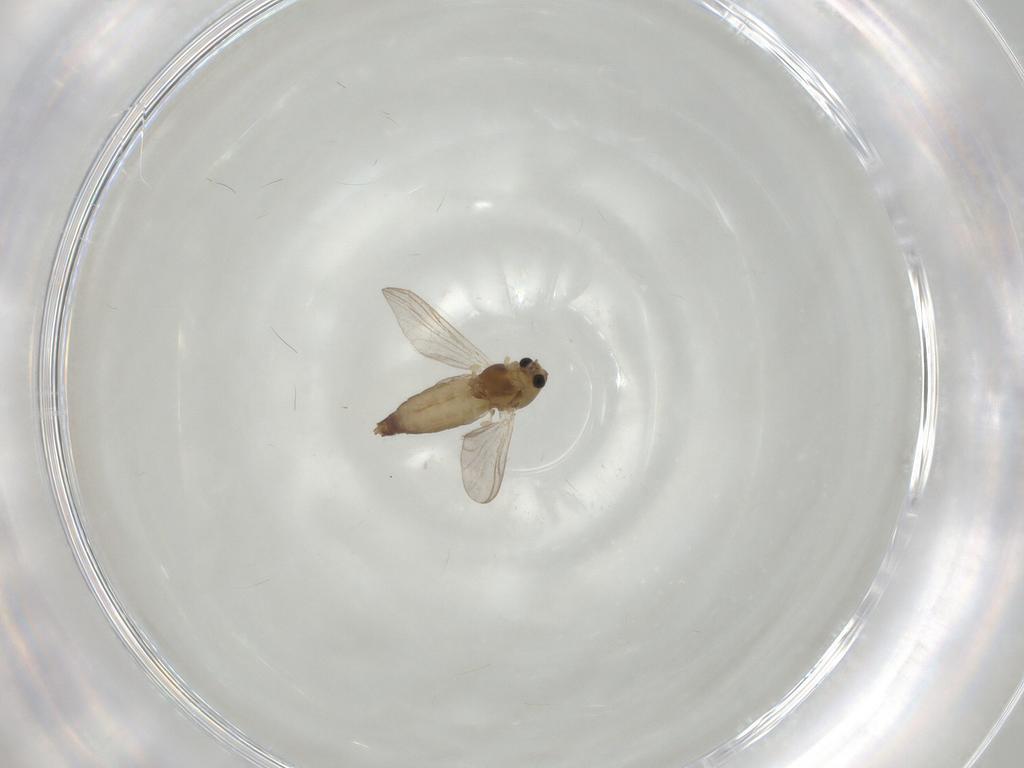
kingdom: Animalia
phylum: Arthropoda
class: Insecta
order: Diptera
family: Chironomidae
